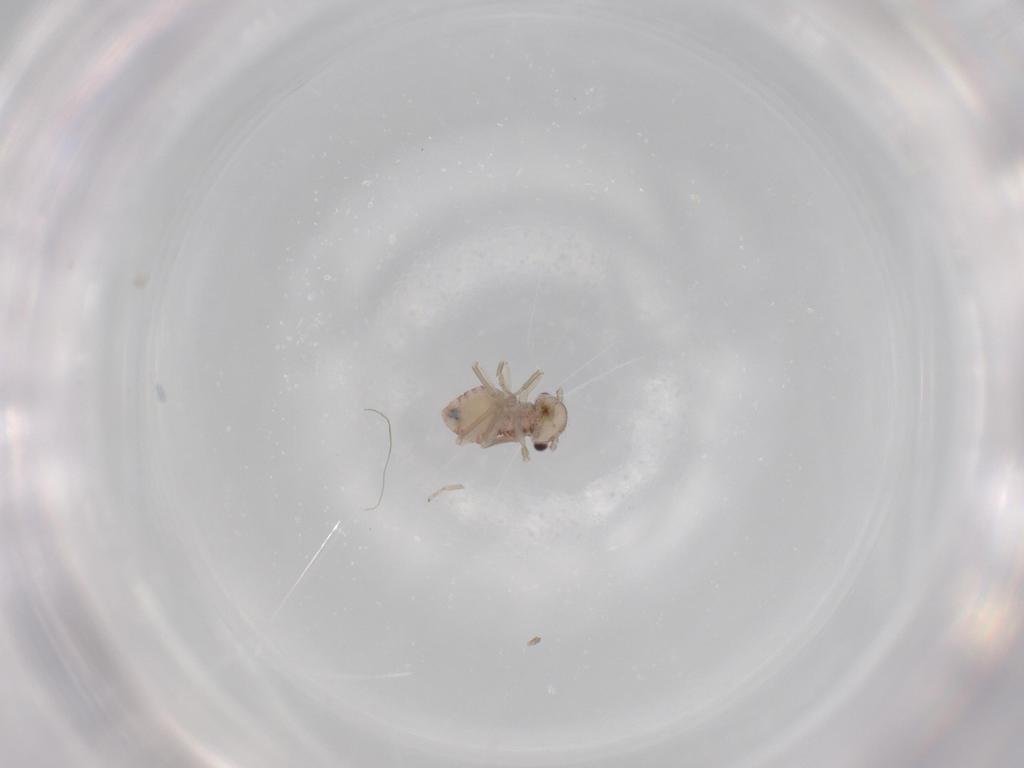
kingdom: Animalia
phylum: Arthropoda
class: Insecta
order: Psocodea
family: Caeciliusidae
